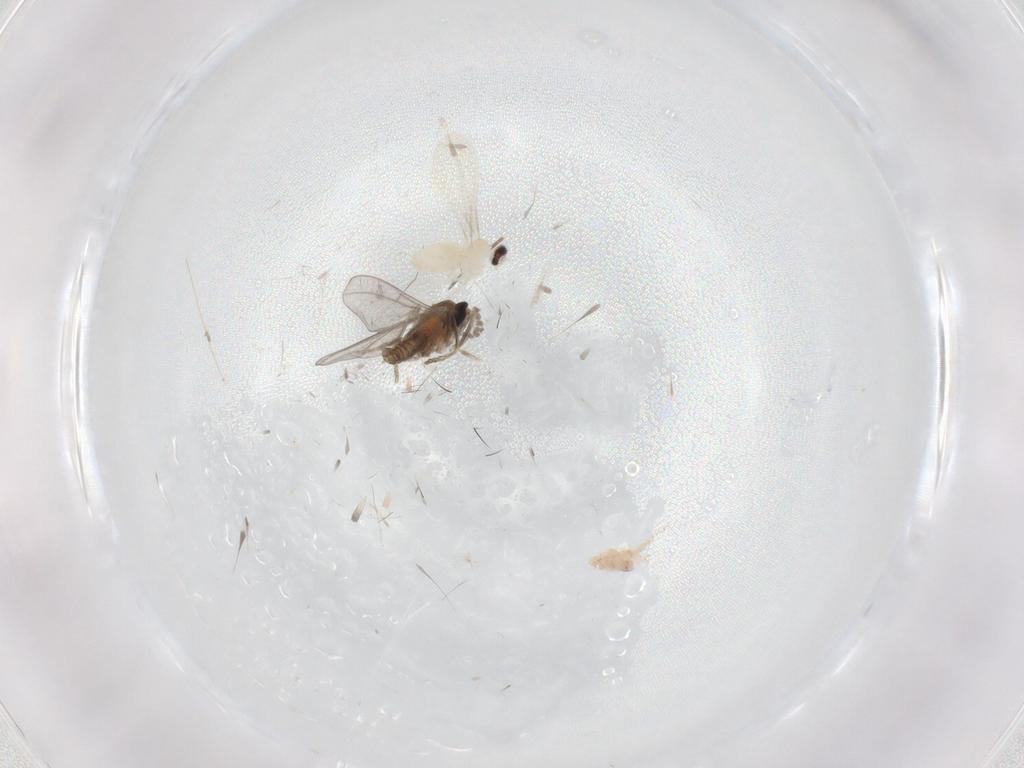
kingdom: Animalia
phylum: Arthropoda
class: Insecta
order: Diptera
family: Cecidomyiidae
